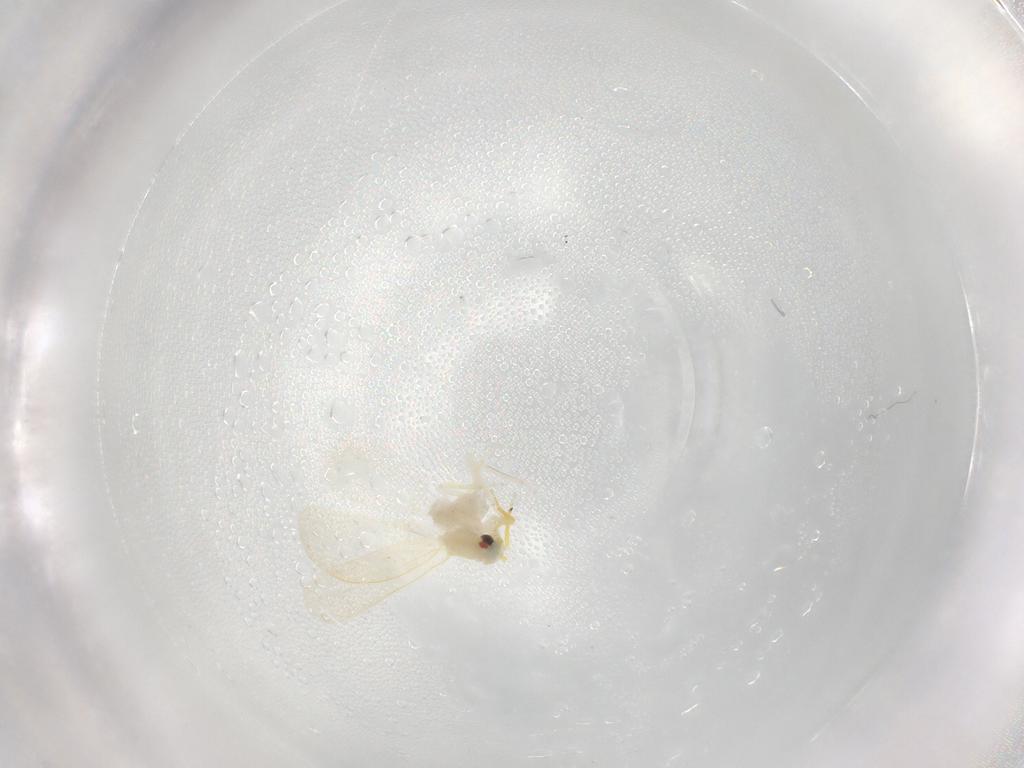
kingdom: Animalia
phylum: Arthropoda
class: Insecta
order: Hemiptera
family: Aleyrodidae
